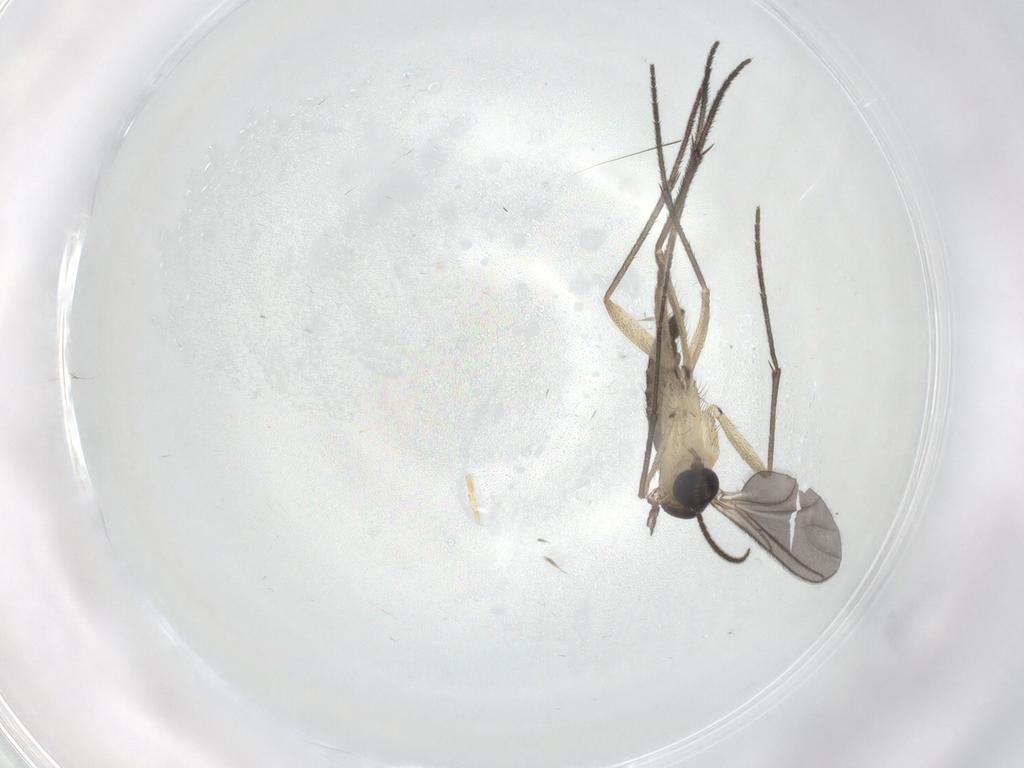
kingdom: Animalia
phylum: Arthropoda
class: Insecta
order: Diptera
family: Sciaridae
